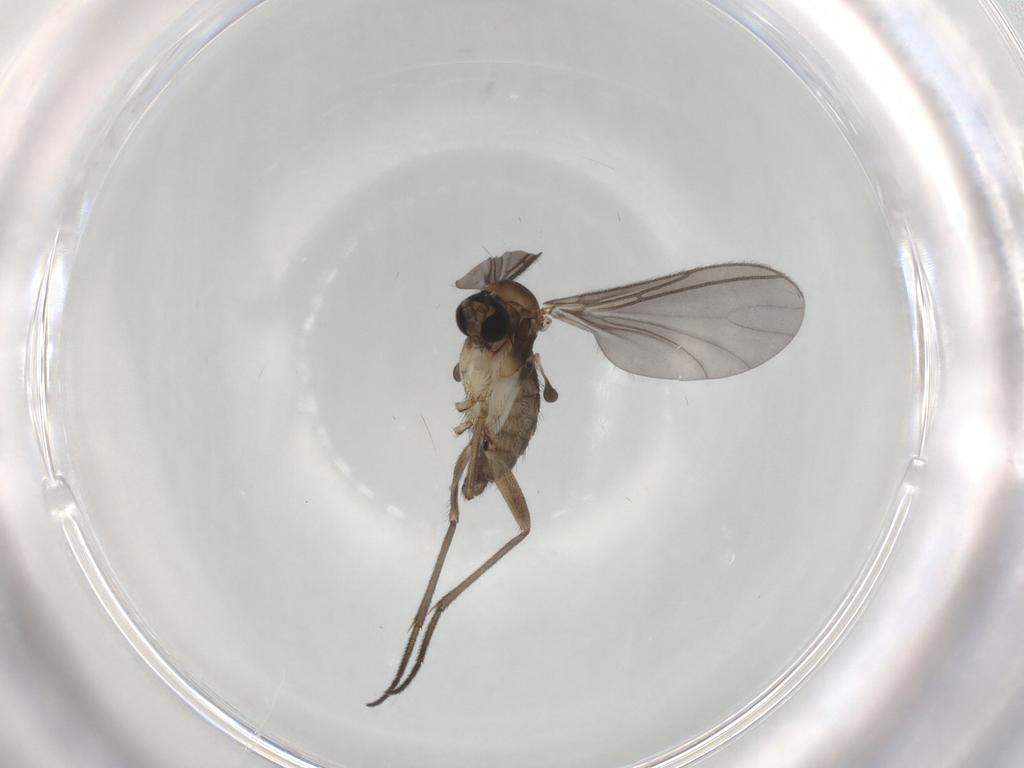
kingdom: Animalia
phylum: Arthropoda
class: Insecta
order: Diptera
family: Sciaridae
